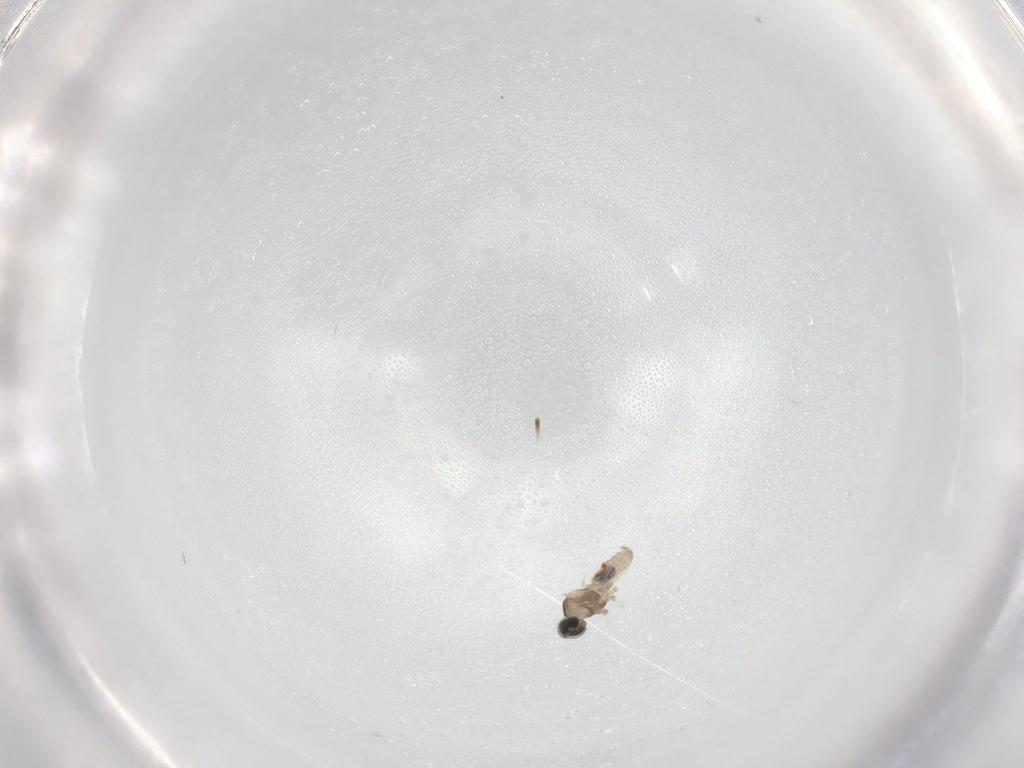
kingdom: Animalia
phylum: Arthropoda
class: Insecta
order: Diptera
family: Cecidomyiidae
